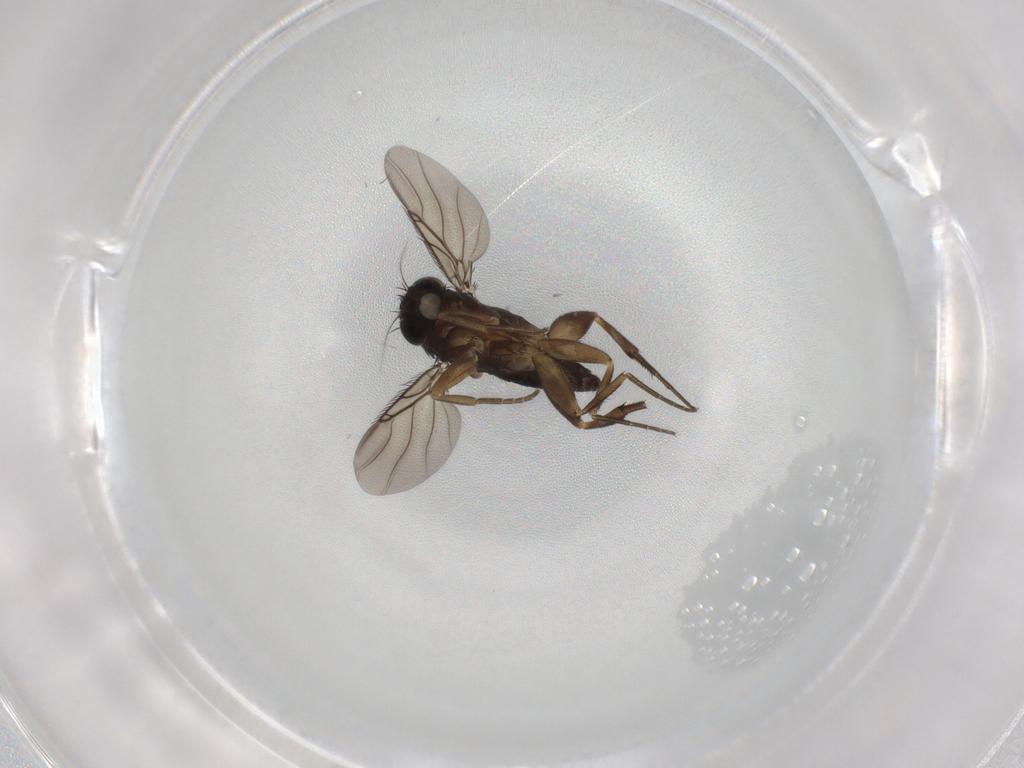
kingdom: Animalia
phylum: Arthropoda
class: Insecta
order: Diptera
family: Phoridae
